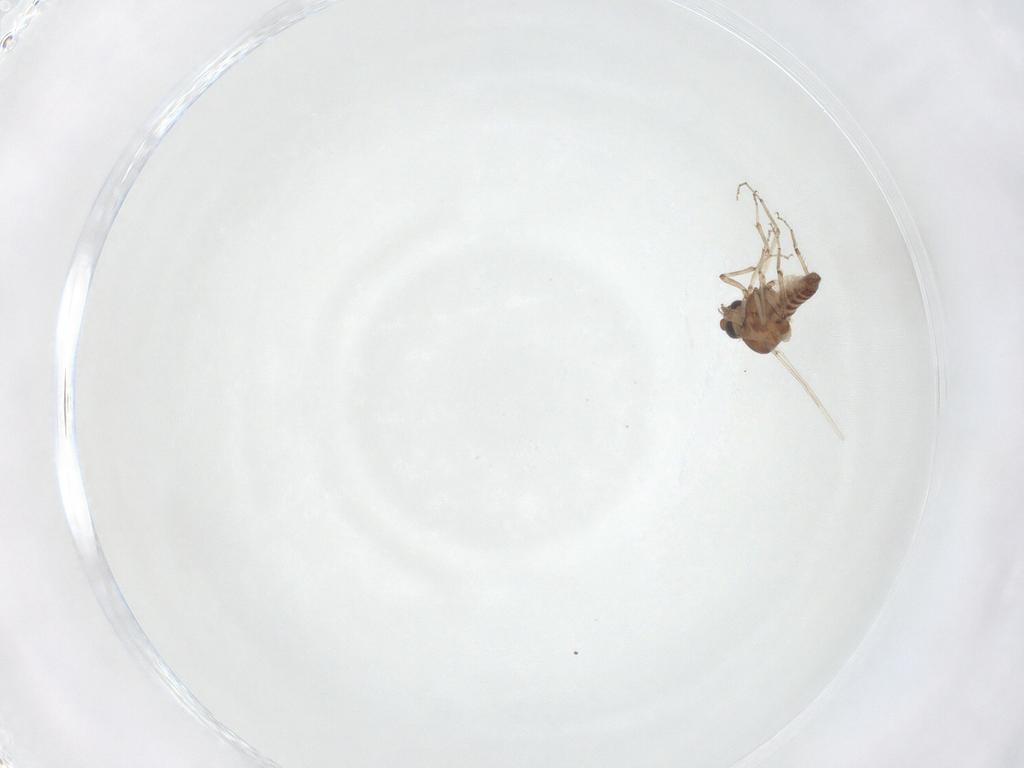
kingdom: Animalia
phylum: Arthropoda
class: Insecta
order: Diptera
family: Ceratopogonidae
